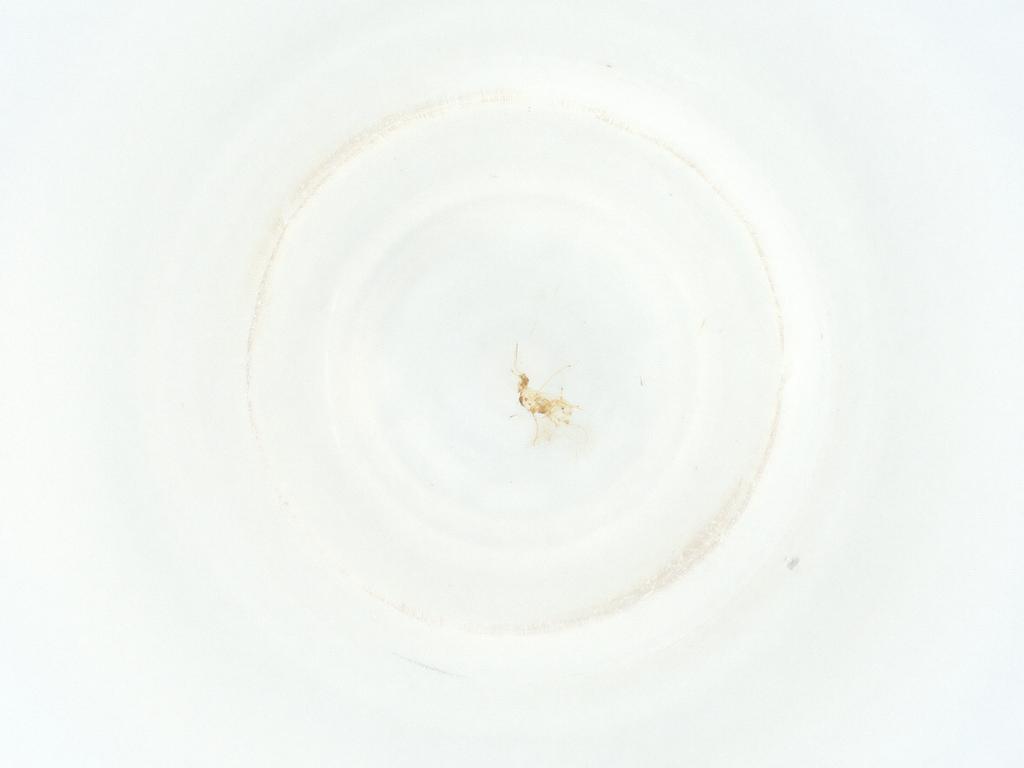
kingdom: Animalia
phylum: Arthropoda
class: Insecta
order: Hymenoptera
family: Mymaridae
